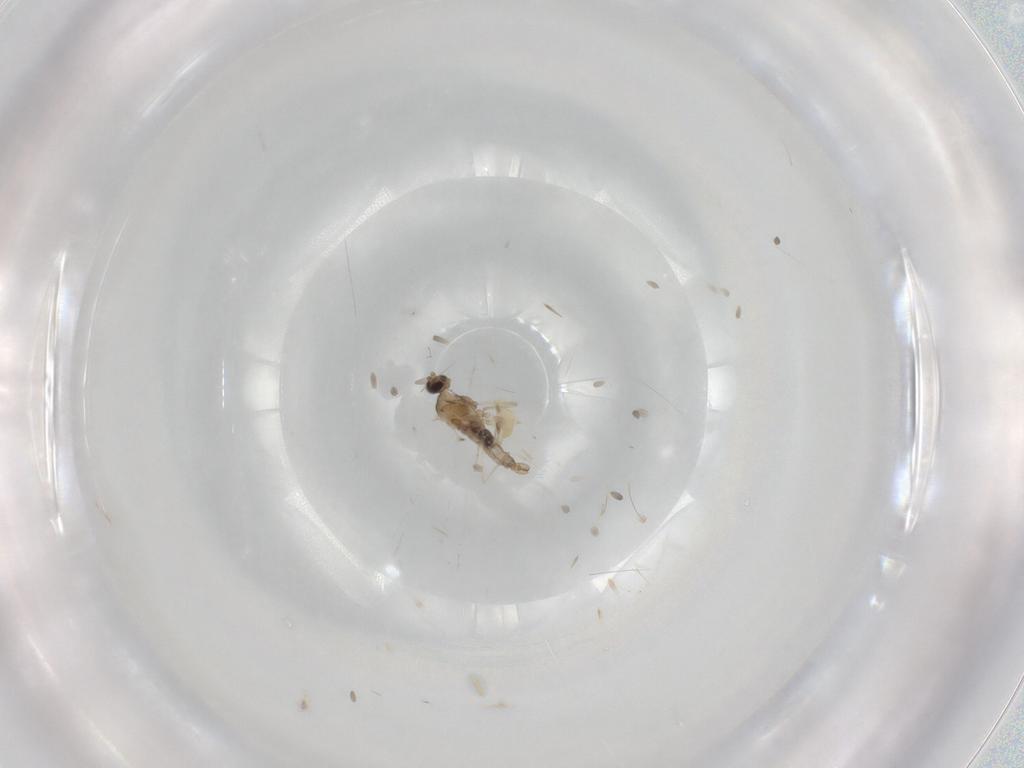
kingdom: Animalia
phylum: Arthropoda
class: Insecta
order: Diptera
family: Cecidomyiidae
